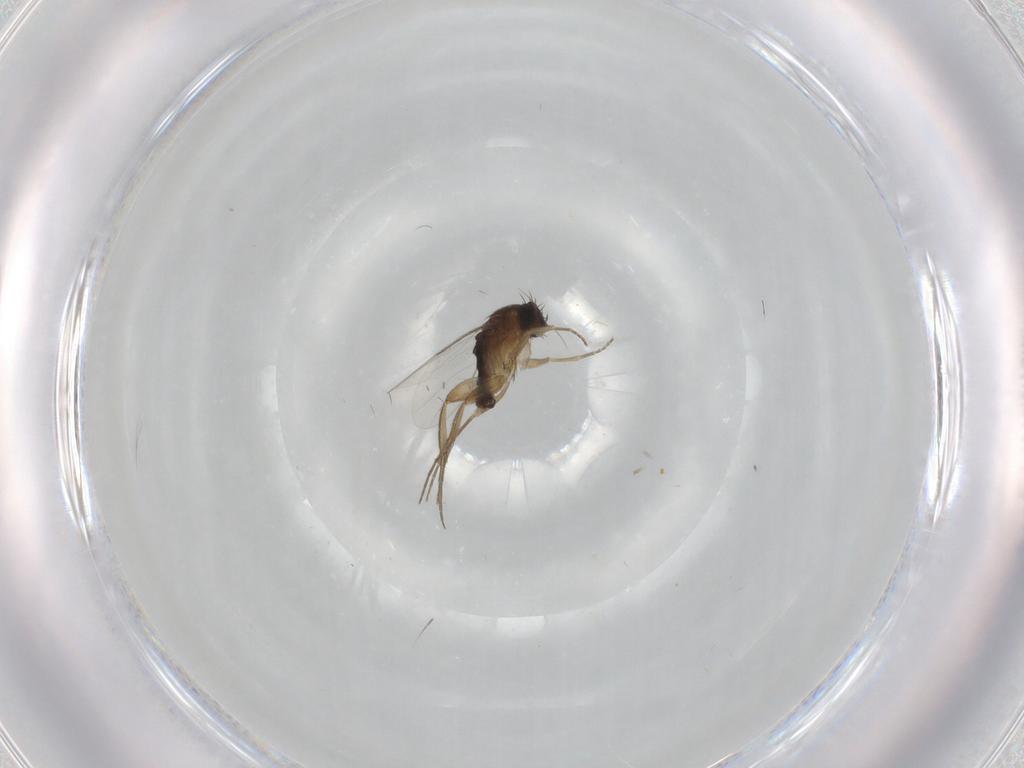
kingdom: Animalia
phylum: Arthropoda
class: Insecta
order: Diptera
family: Phoridae
